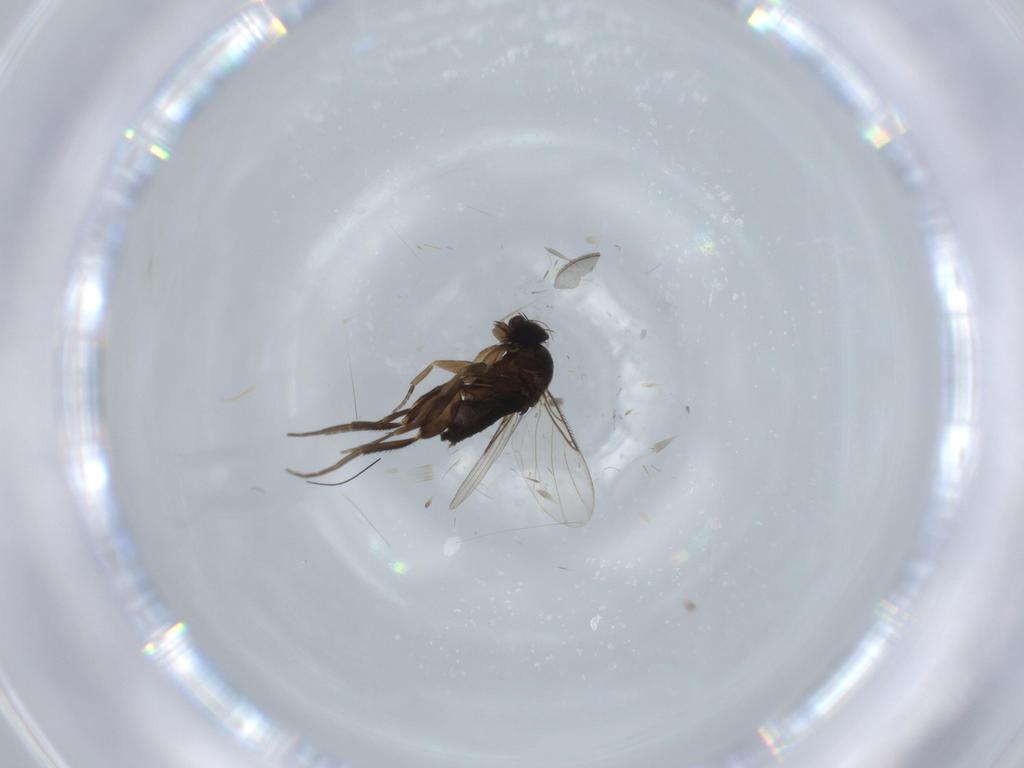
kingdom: Animalia
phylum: Arthropoda
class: Insecta
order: Diptera
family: Phoridae
